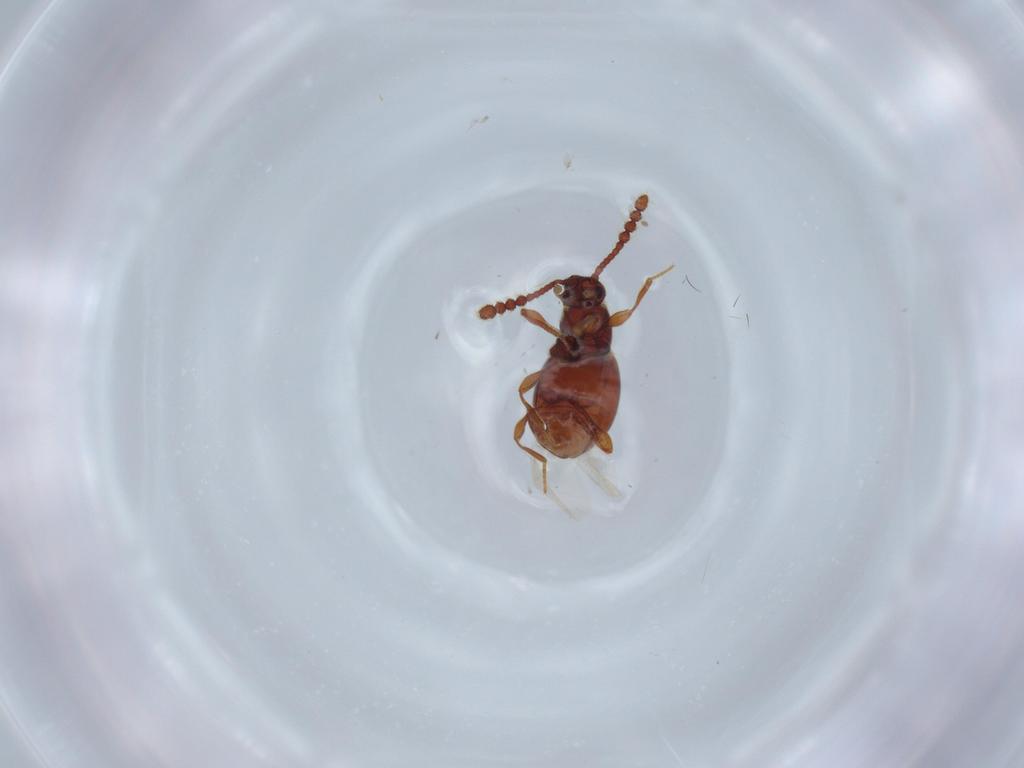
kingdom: Animalia
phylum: Arthropoda
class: Insecta
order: Coleoptera
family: Staphylinidae
